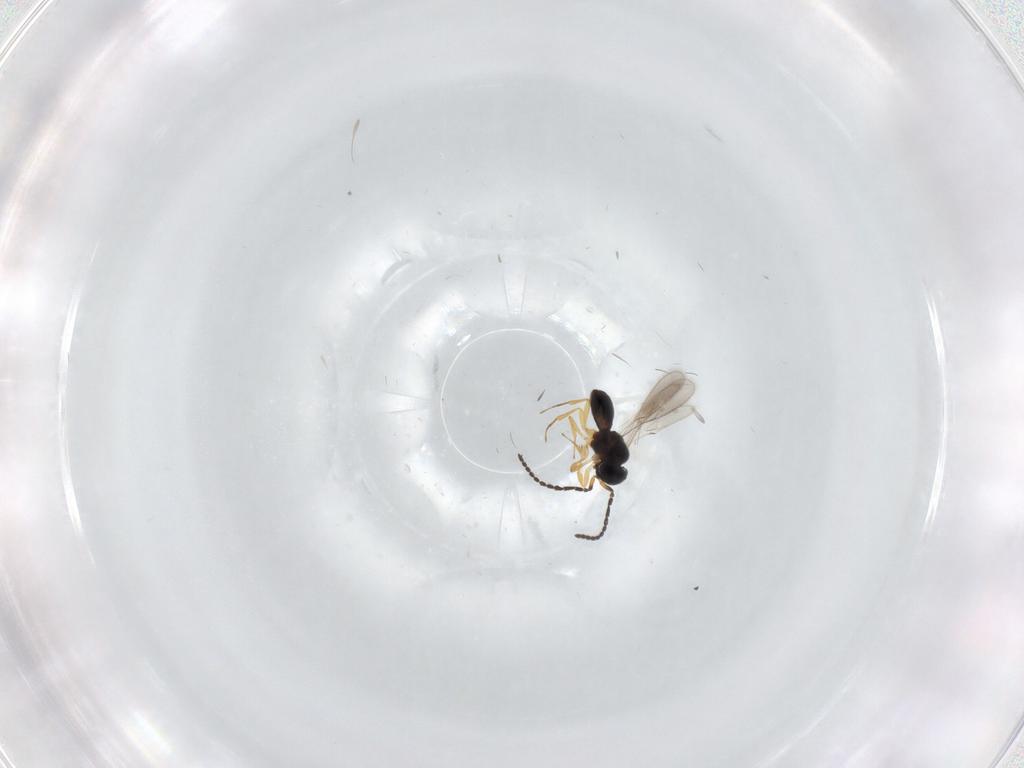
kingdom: Animalia
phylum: Arthropoda
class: Insecta
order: Hymenoptera
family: Scelionidae
